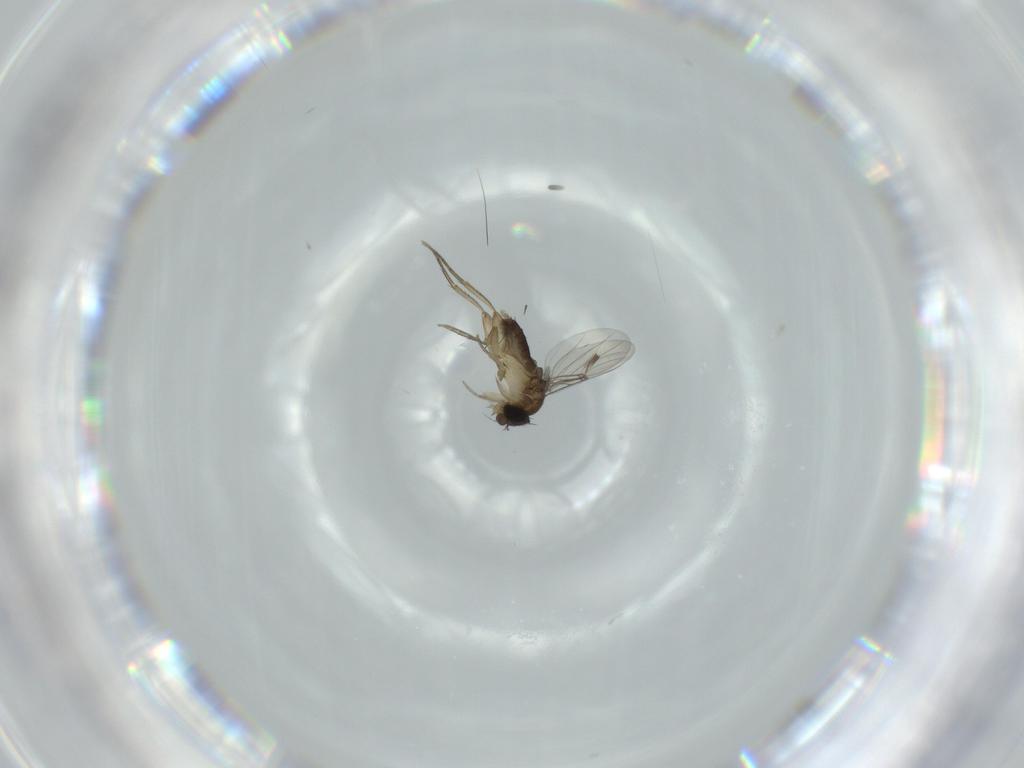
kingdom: Animalia
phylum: Arthropoda
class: Insecta
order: Diptera
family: Phoridae
